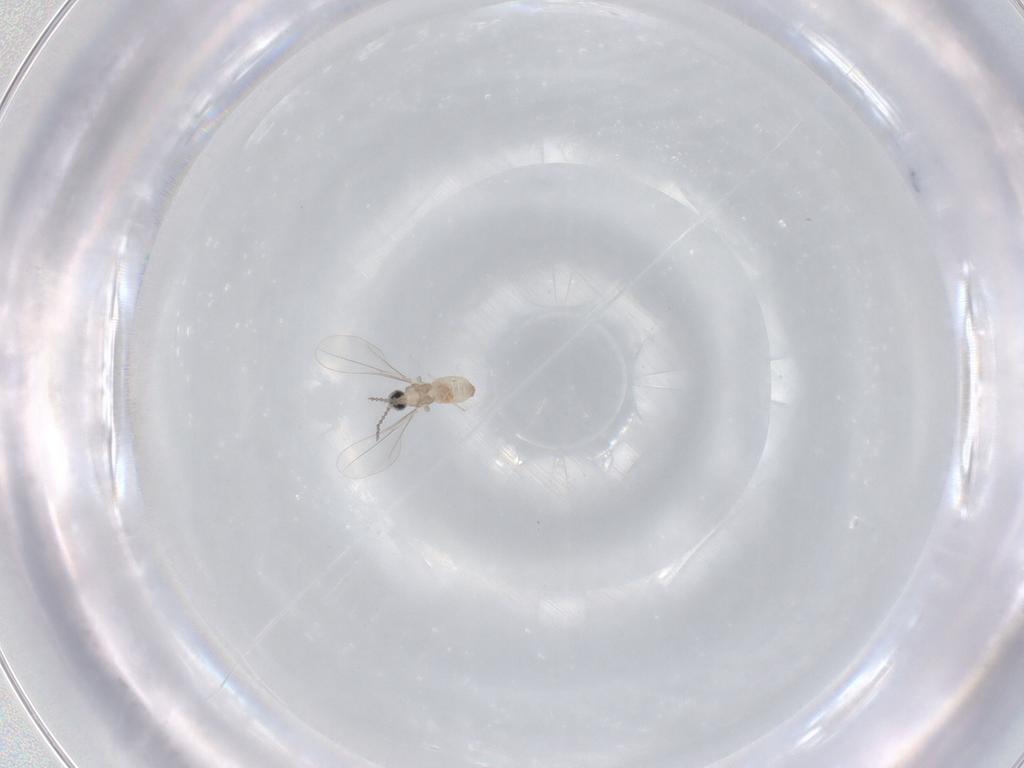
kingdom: Animalia
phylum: Arthropoda
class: Insecta
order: Diptera
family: Cecidomyiidae
